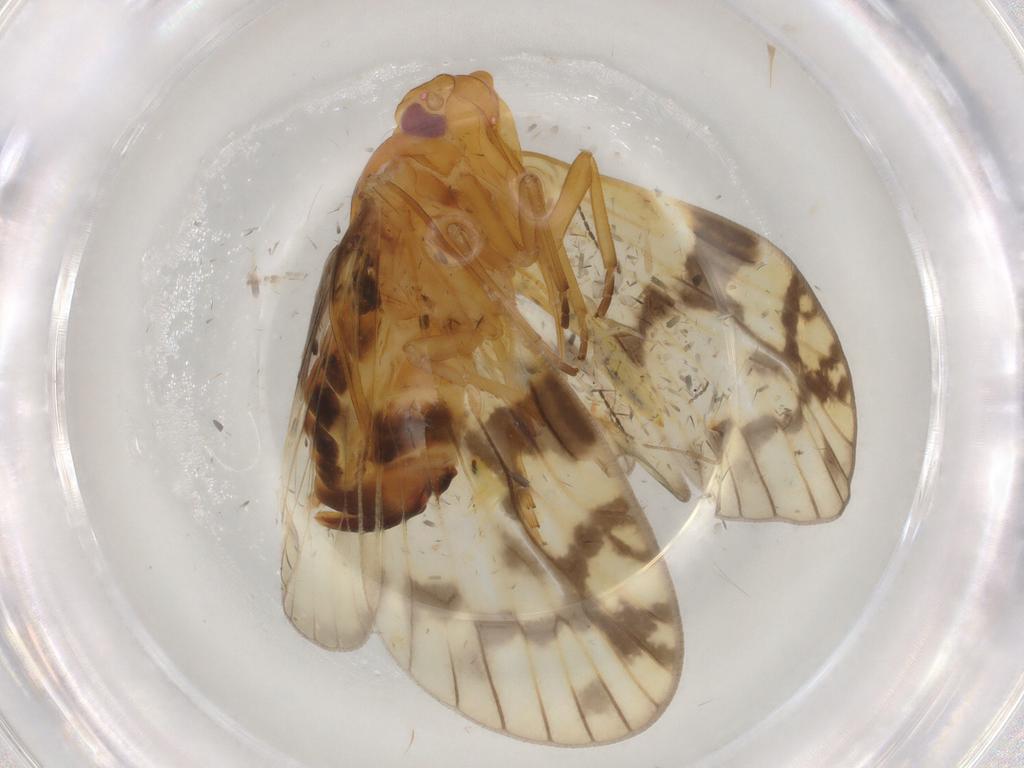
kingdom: Animalia
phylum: Arthropoda
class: Insecta
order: Hemiptera
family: Cixiidae
